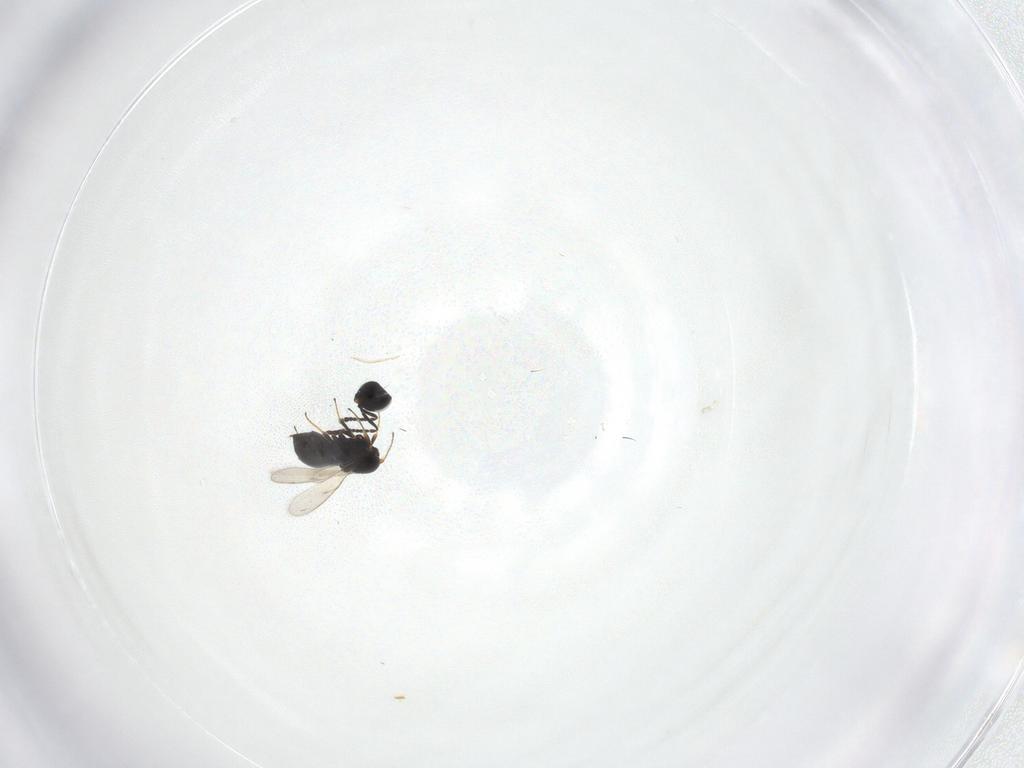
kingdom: Animalia
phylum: Arthropoda
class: Insecta
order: Hymenoptera
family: Scelionidae
